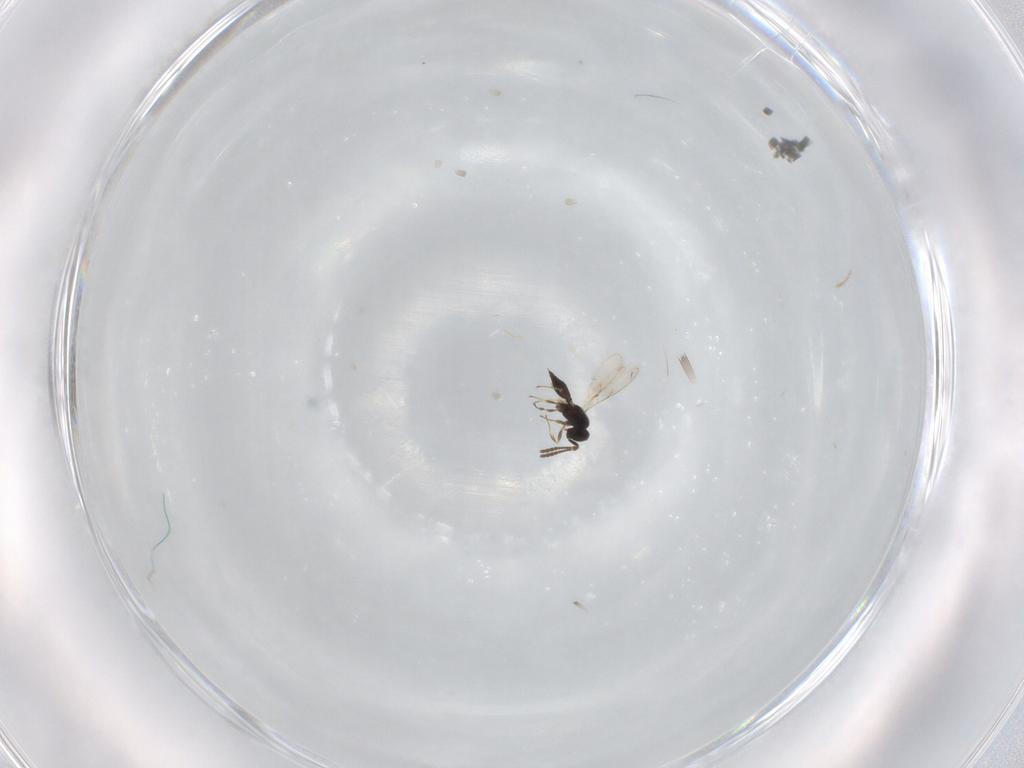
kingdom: Animalia
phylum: Arthropoda
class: Insecta
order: Hymenoptera
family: Scelionidae
